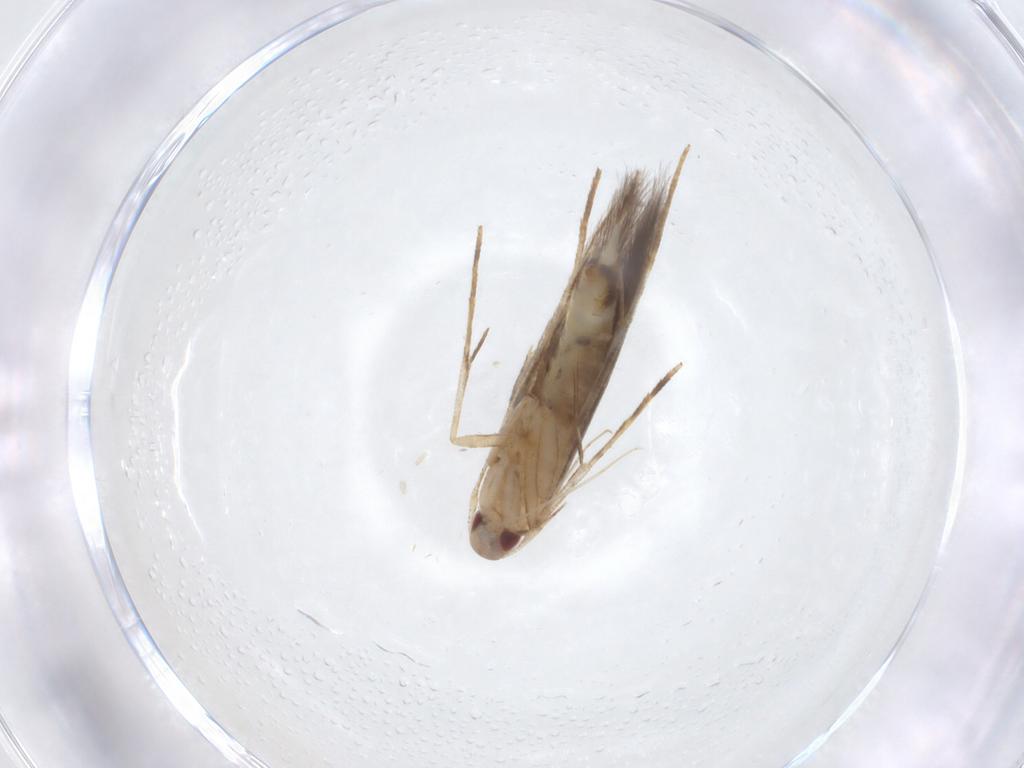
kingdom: Animalia
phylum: Arthropoda
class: Insecta
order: Lepidoptera
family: Cosmopterigidae
